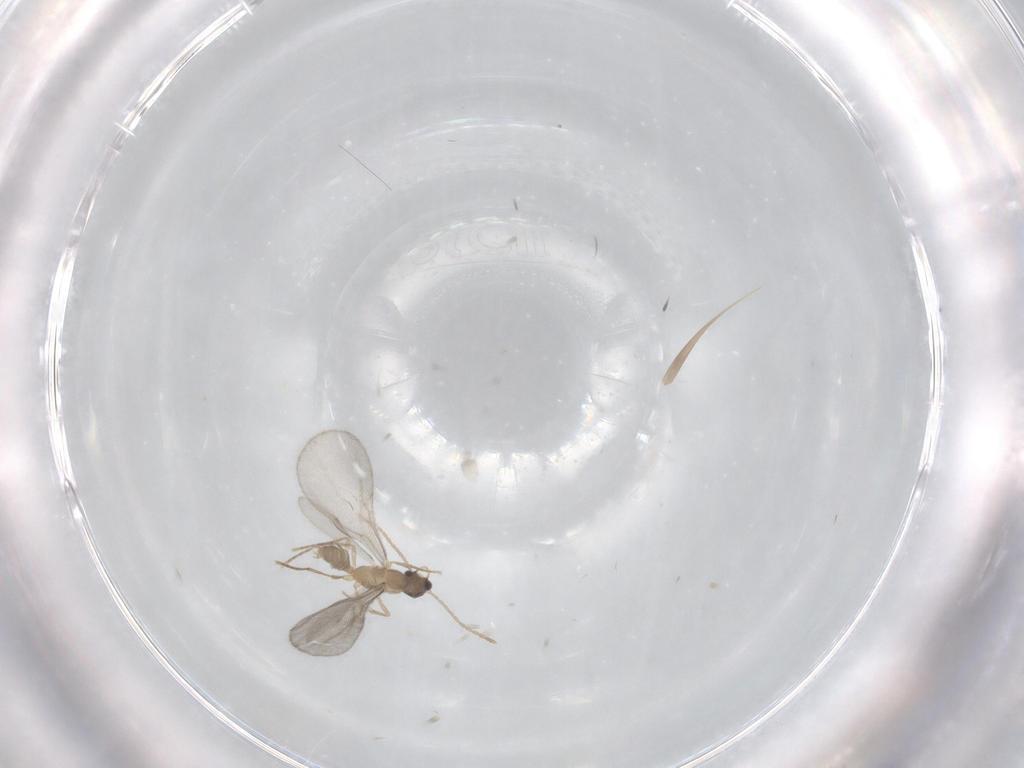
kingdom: Animalia
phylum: Arthropoda
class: Insecta
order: Hymenoptera
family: Formicidae
